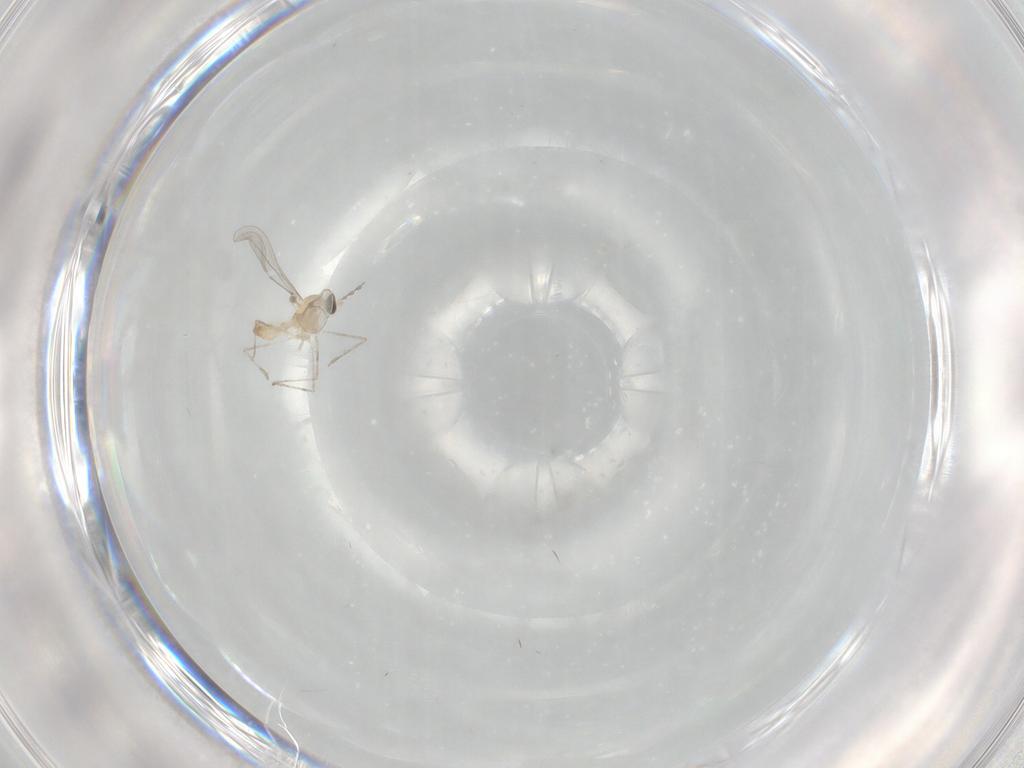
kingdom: Animalia
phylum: Arthropoda
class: Insecta
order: Diptera
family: Cecidomyiidae
